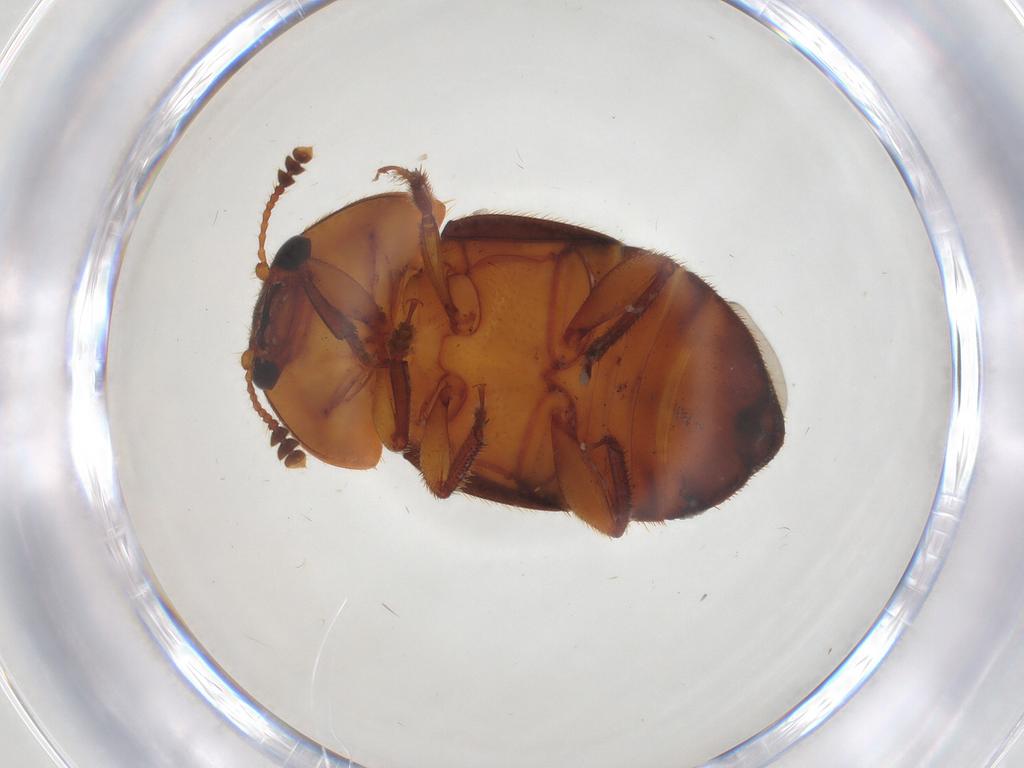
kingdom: Animalia
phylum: Arthropoda
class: Insecta
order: Coleoptera
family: Nitidulidae
